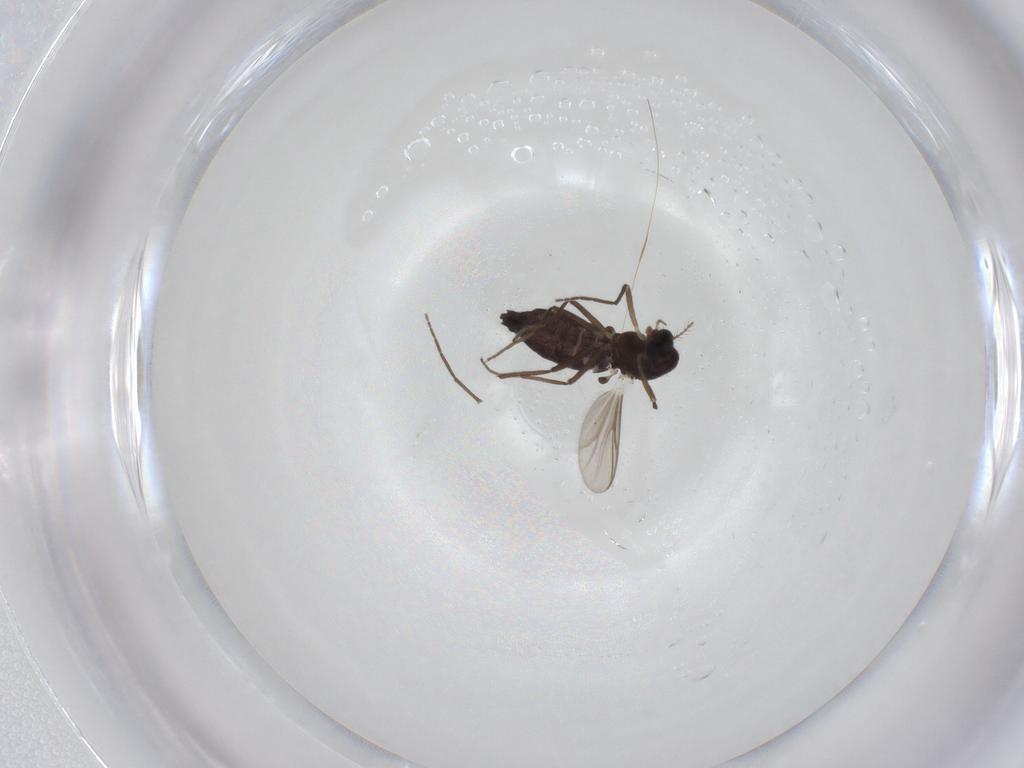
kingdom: Animalia
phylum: Arthropoda
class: Insecta
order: Diptera
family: Chironomidae
